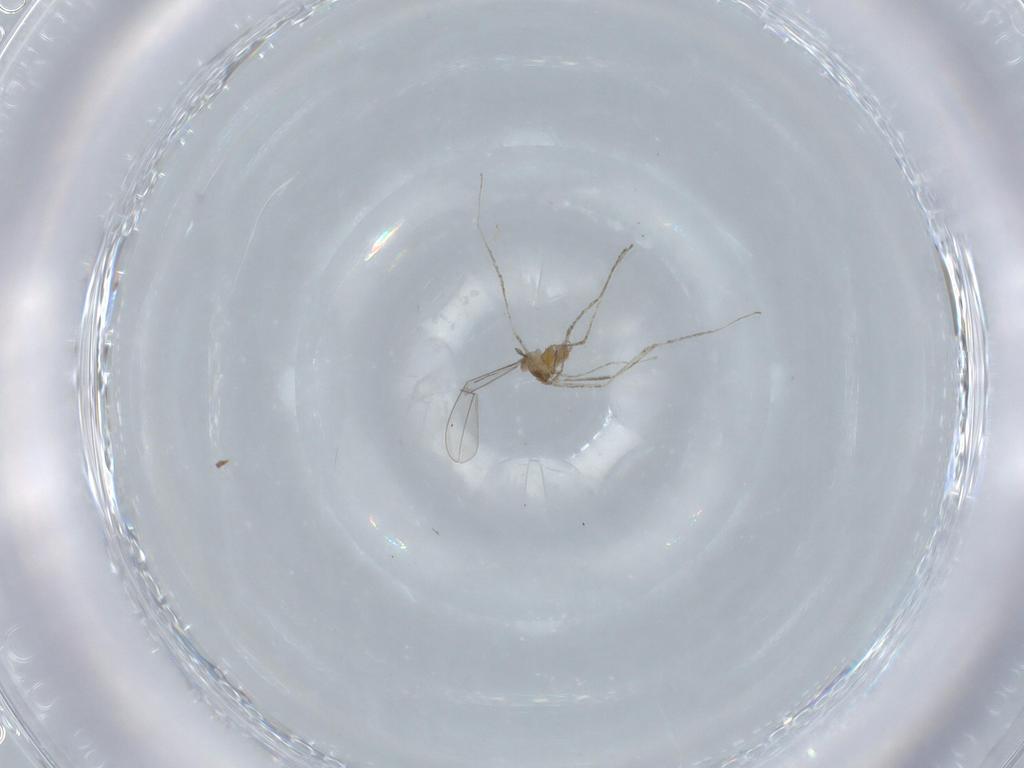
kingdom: Animalia
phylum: Arthropoda
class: Insecta
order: Diptera
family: Cecidomyiidae
